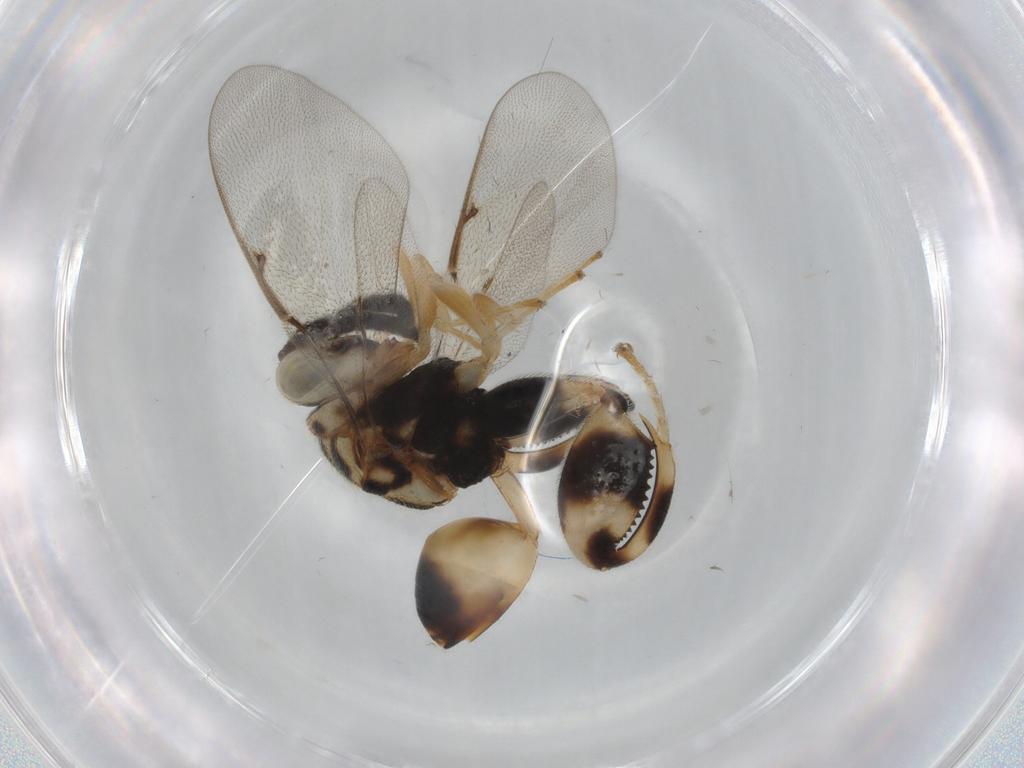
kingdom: Animalia
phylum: Arthropoda
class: Insecta
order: Hymenoptera
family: Chalcididae
